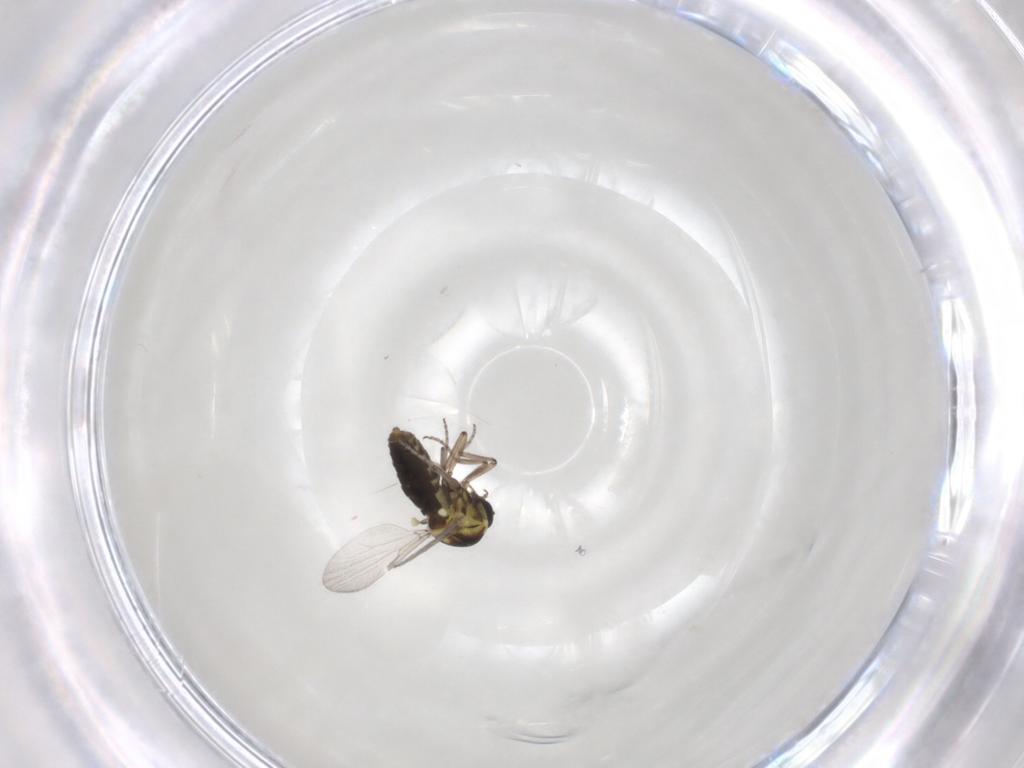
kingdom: Animalia
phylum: Arthropoda
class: Insecta
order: Diptera
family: Ceratopogonidae
